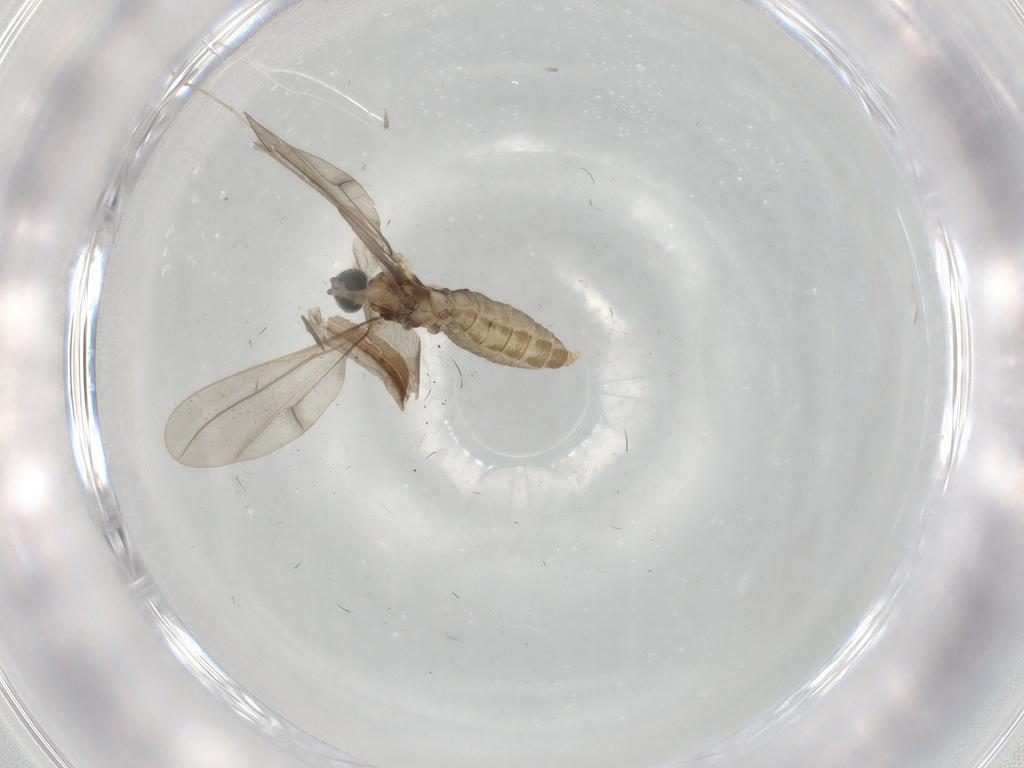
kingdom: Animalia
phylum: Arthropoda
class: Insecta
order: Diptera
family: Cecidomyiidae
